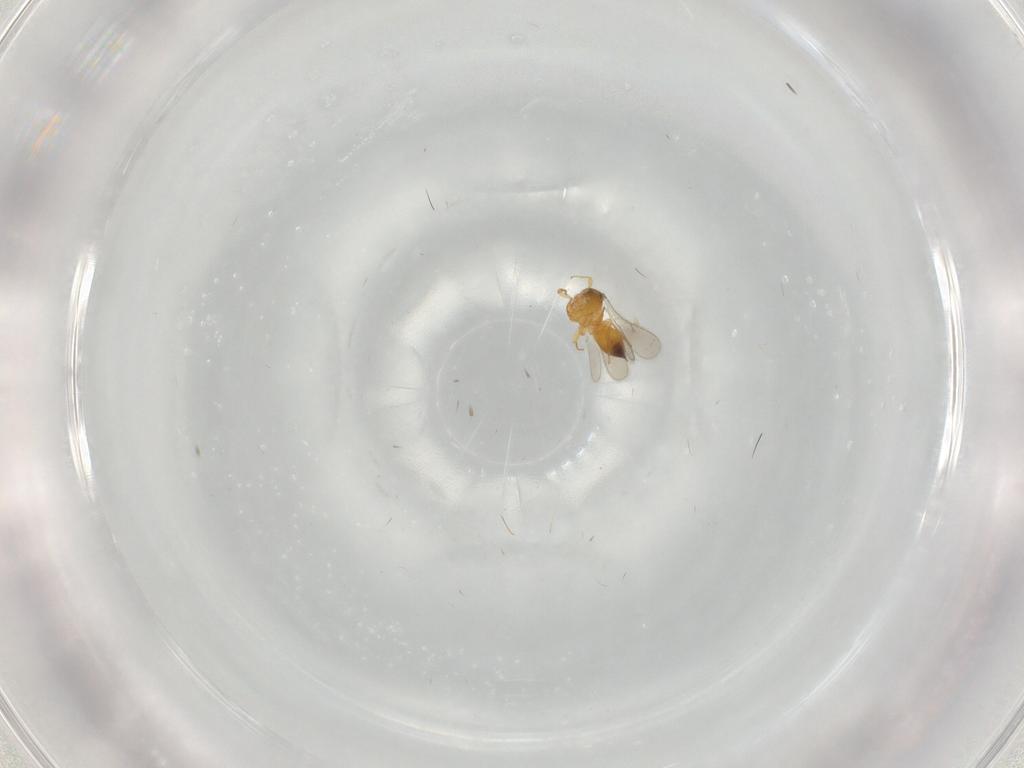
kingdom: Animalia
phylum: Arthropoda
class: Insecta
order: Hymenoptera
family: Scelionidae
